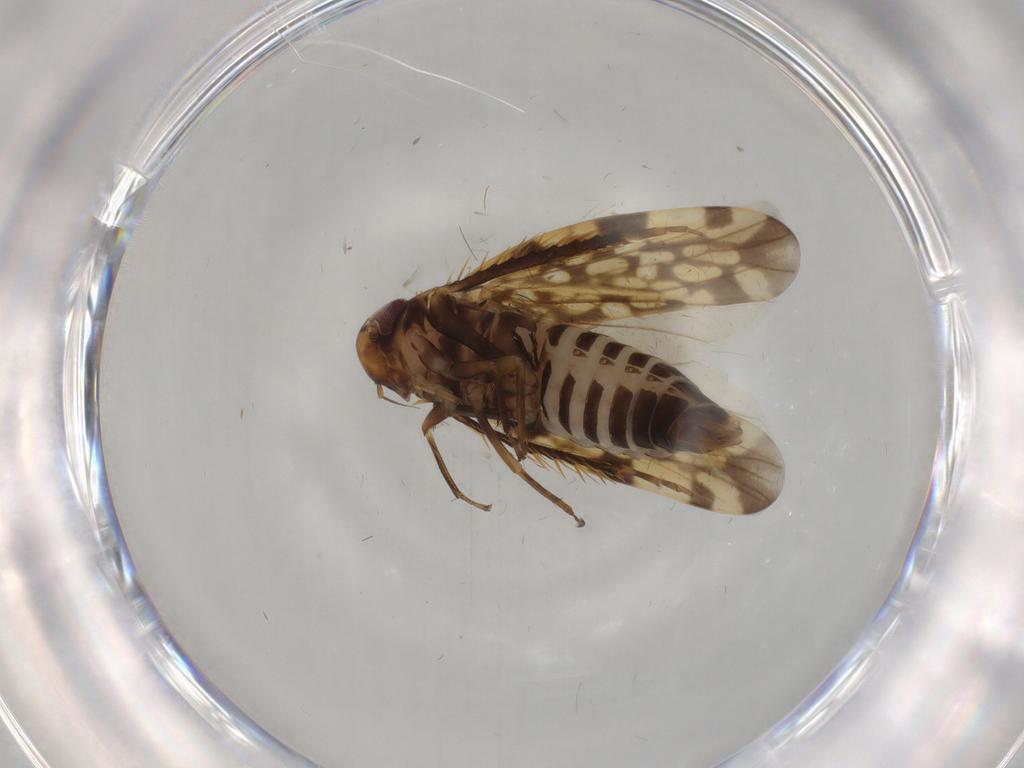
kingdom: Animalia
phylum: Arthropoda
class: Insecta
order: Hemiptera
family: Cicadellidae
